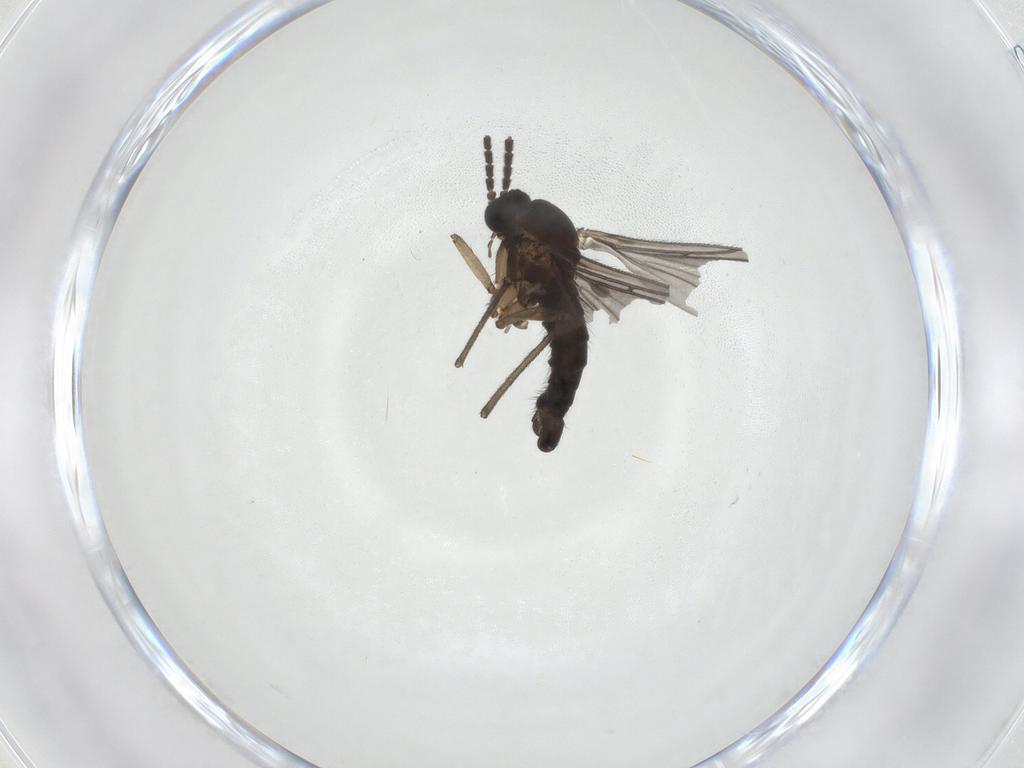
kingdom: Animalia
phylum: Arthropoda
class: Insecta
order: Diptera
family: Sciaridae
